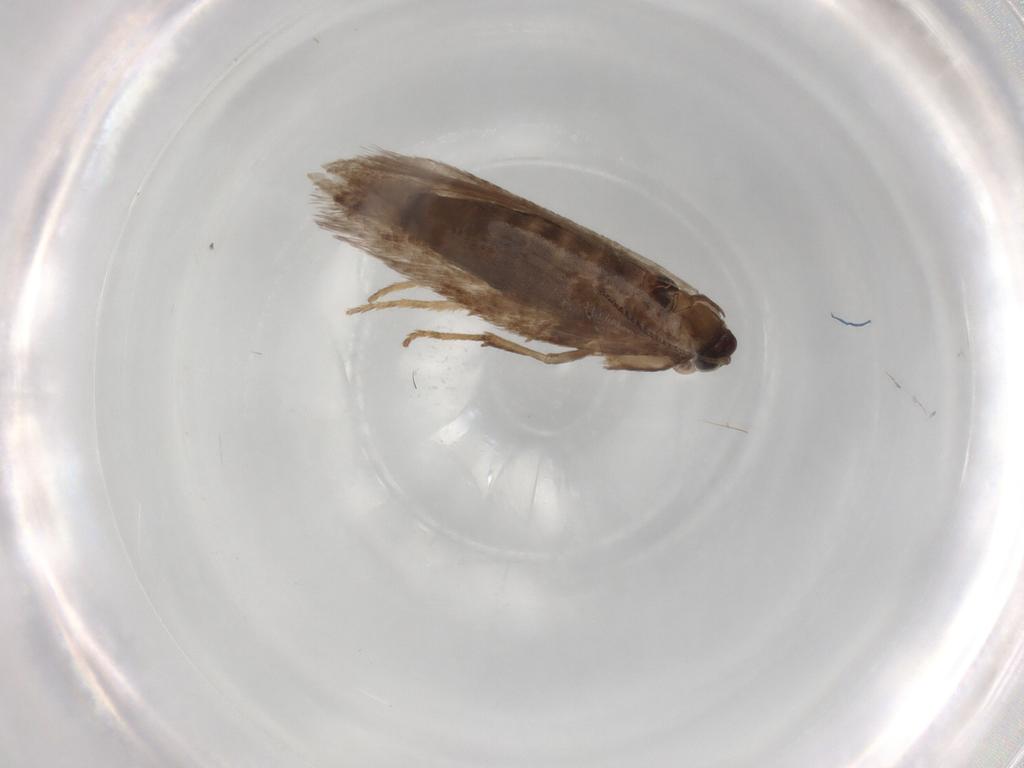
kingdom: Animalia
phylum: Arthropoda
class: Insecta
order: Lepidoptera
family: Nepticulidae
